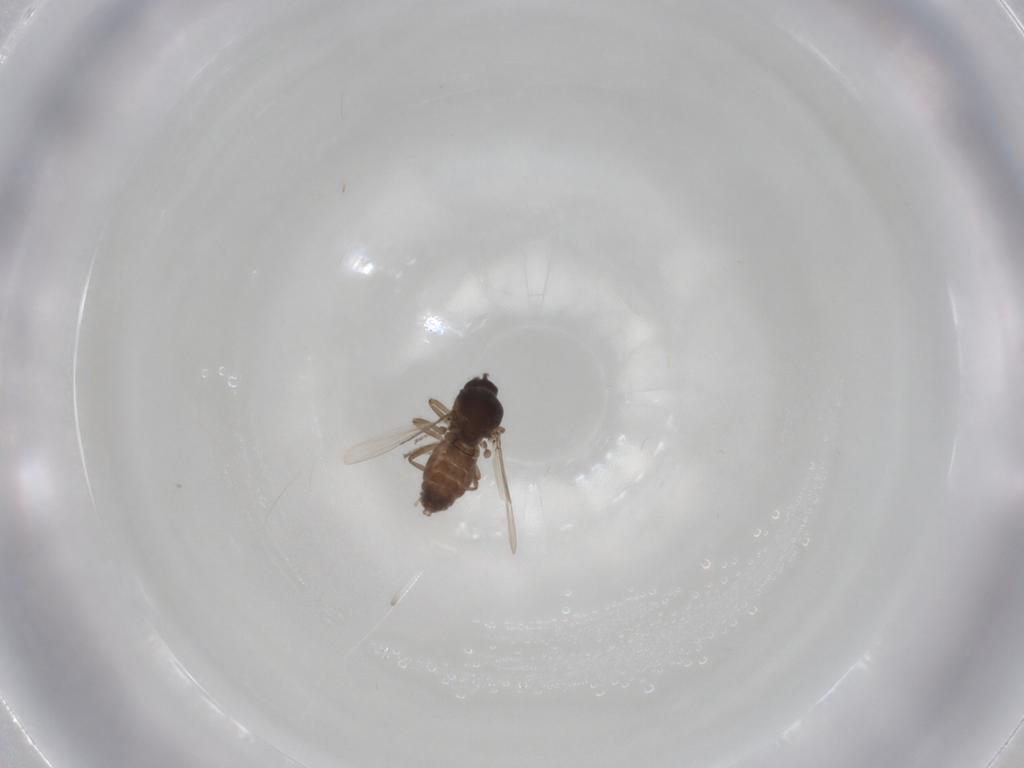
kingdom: Animalia
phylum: Arthropoda
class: Insecta
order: Diptera
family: Ceratopogonidae
